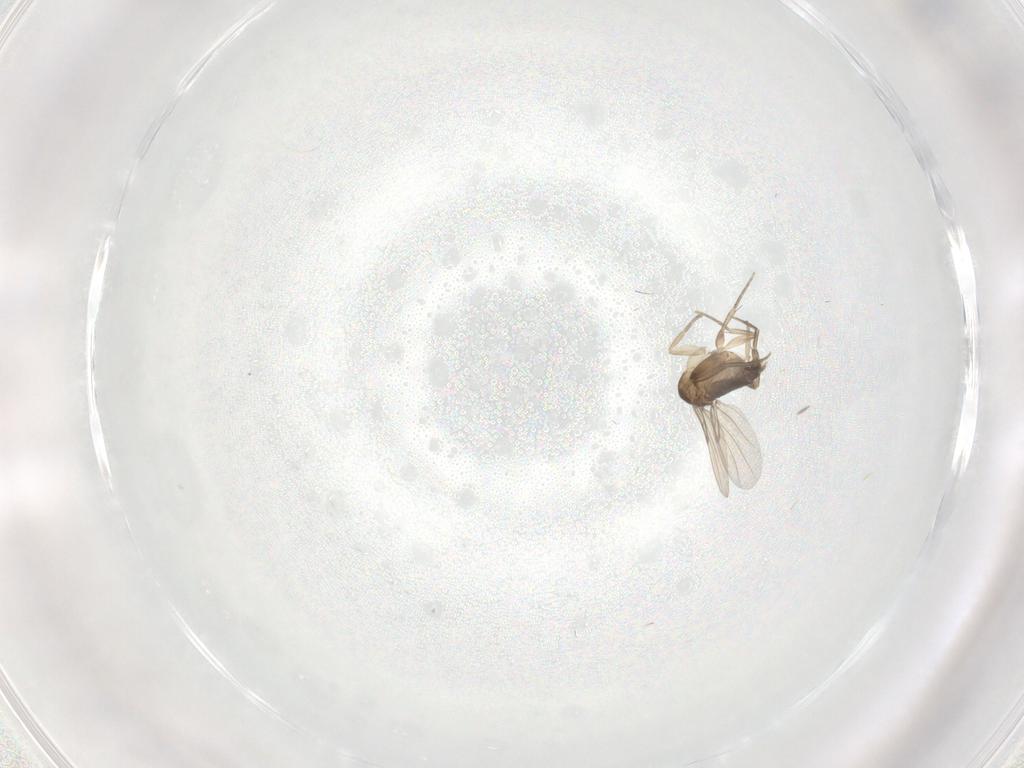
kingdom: Animalia
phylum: Arthropoda
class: Insecta
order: Diptera
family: Phoridae
